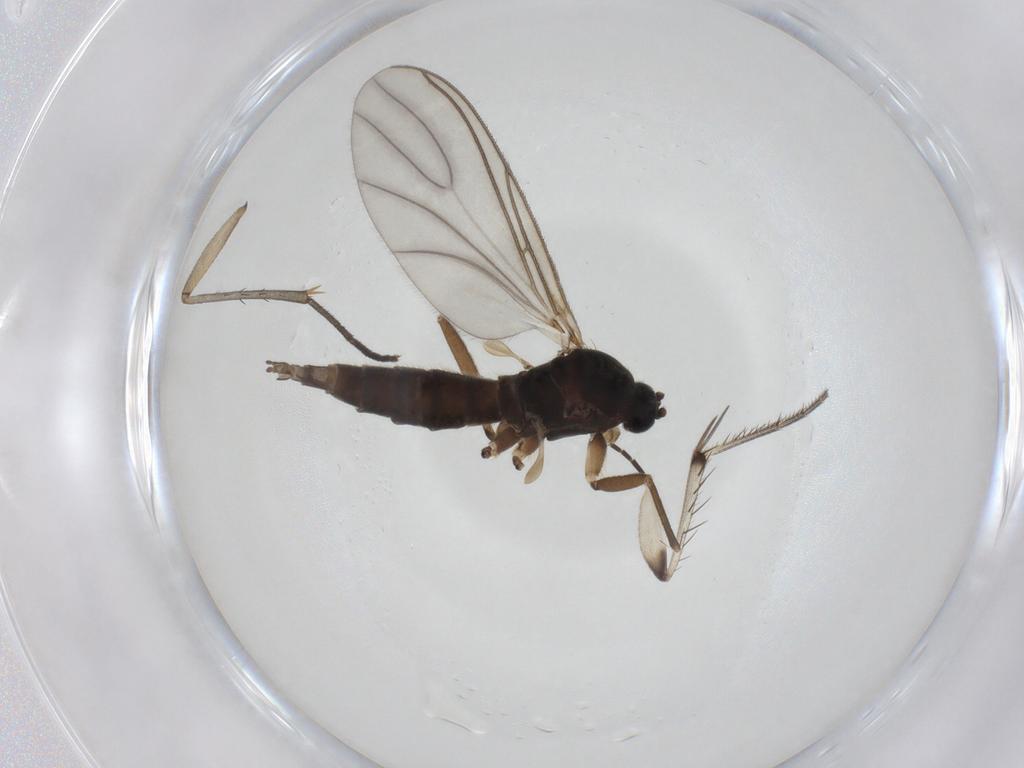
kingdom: Animalia
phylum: Arthropoda
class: Insecta
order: Diptera
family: Sciaridae
